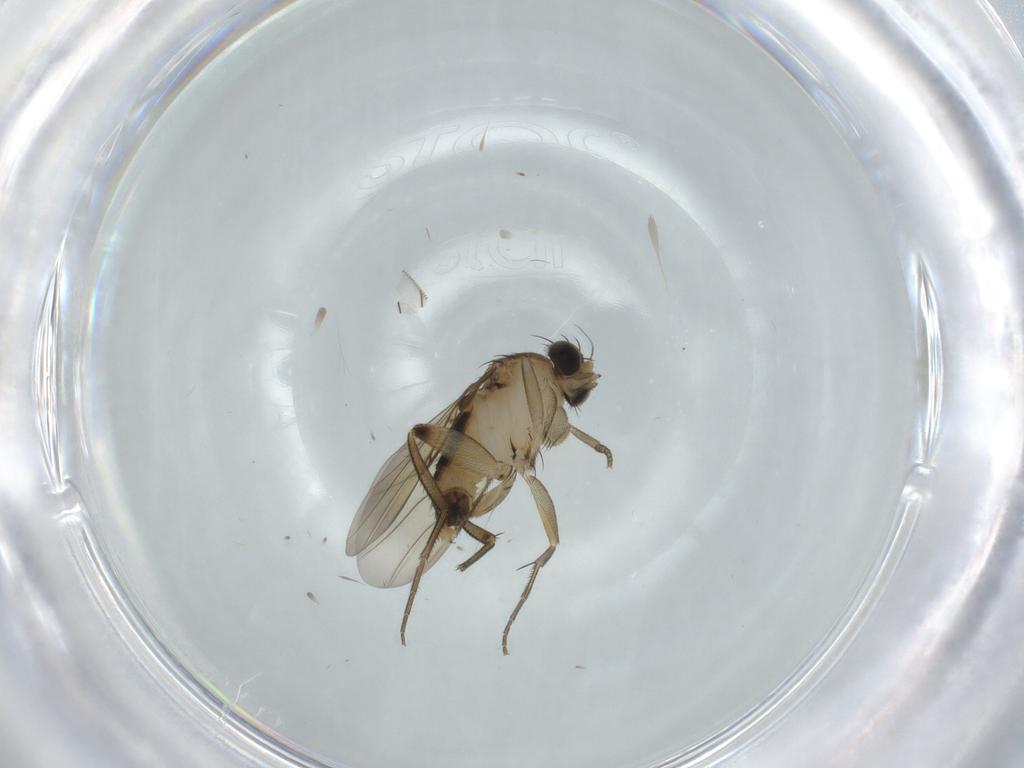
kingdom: Animalia
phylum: Arthropoda
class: Insecta
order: Diptera
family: Phoridae
